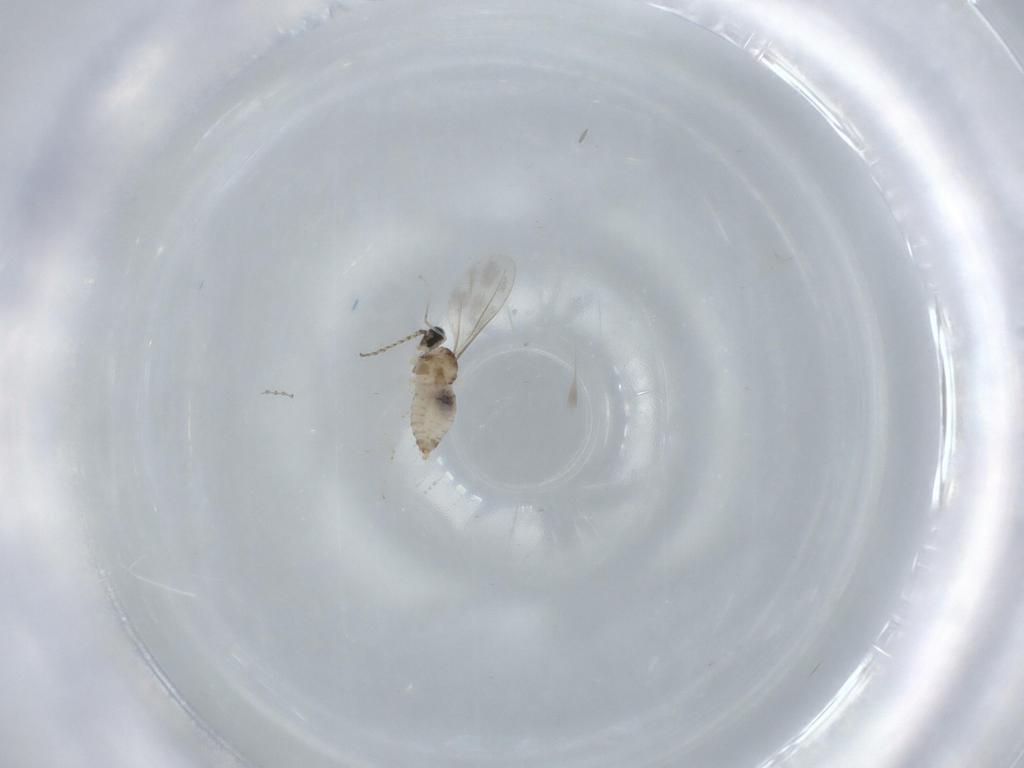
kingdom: Animalia
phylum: Arthropoda
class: Insecta
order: Diptera
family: Cecidomyiidae
